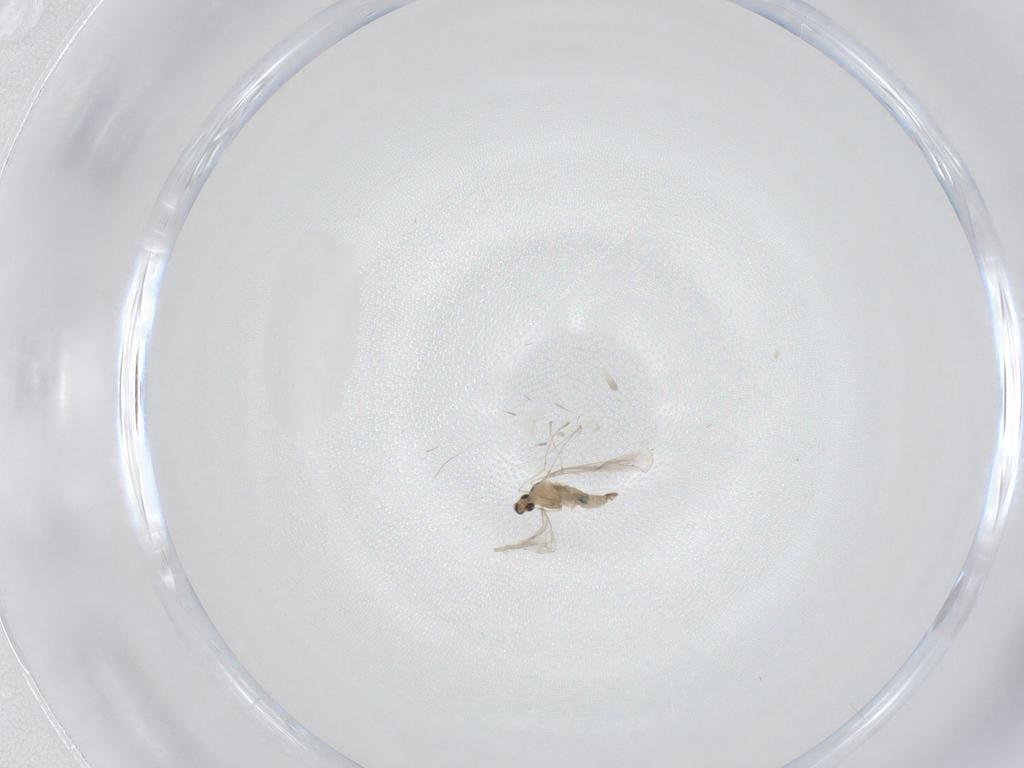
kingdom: Animalia
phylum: Arthropoda
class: Insecta
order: Diptera
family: Cecidomyiidae
